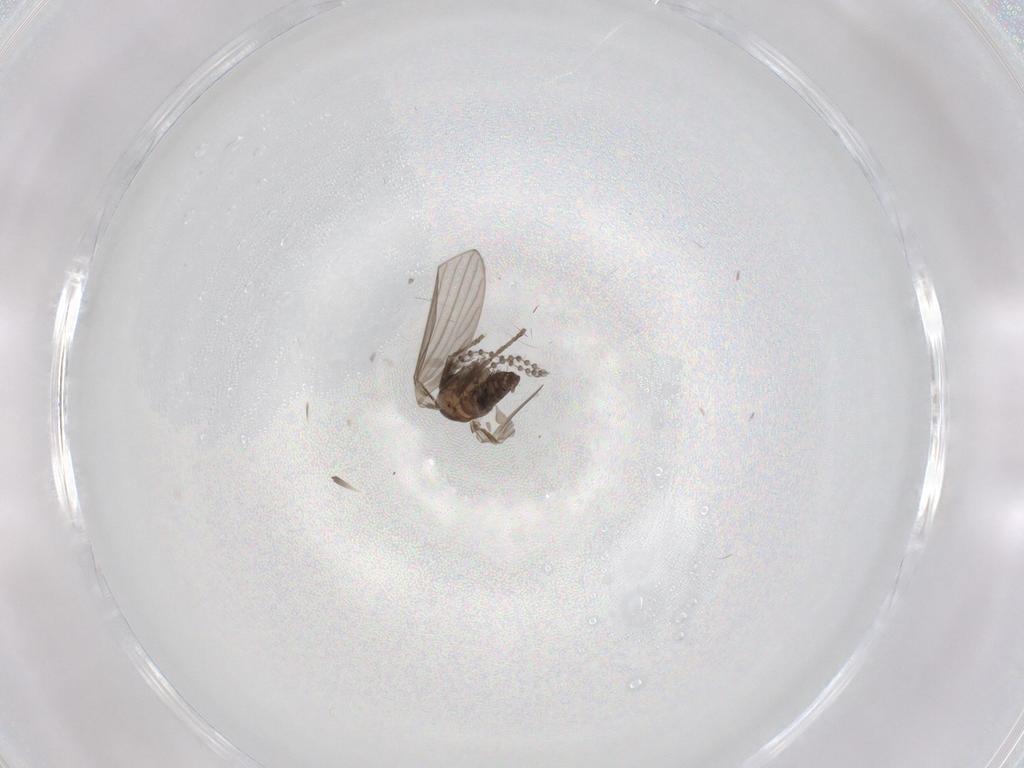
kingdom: Animalia
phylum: Arthropoda
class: Insecta
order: Diptera
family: Psychodidae
